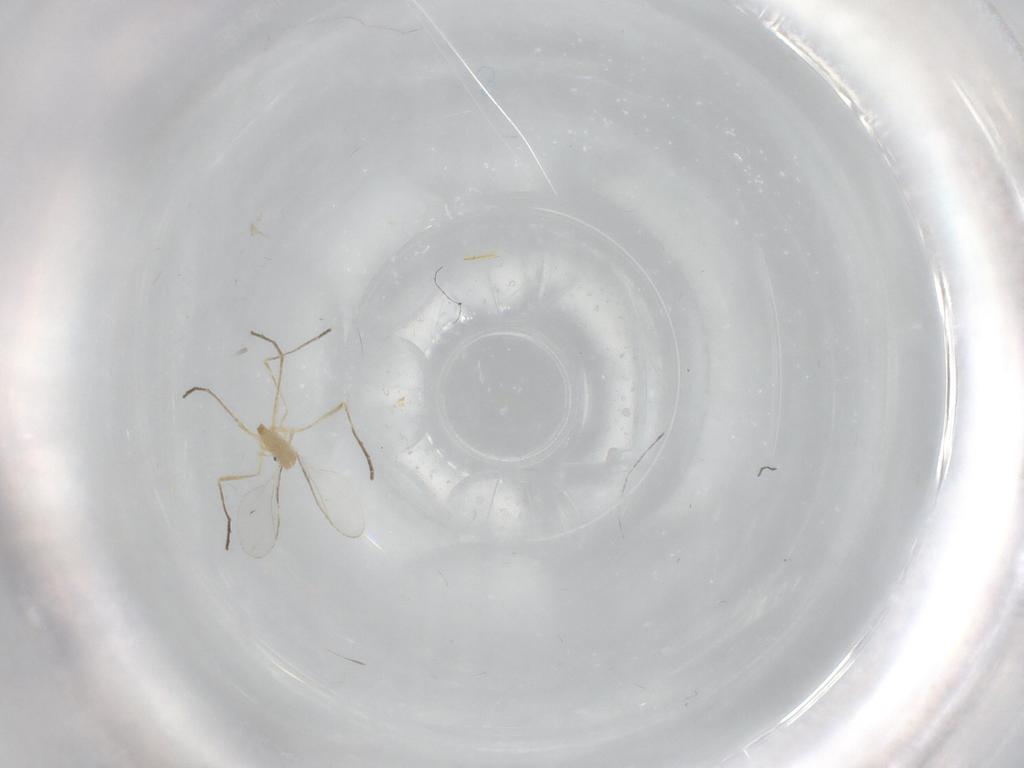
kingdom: Animalia
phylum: Arthropoda
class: Insecta
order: Diptera
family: Cecidomyiidae
